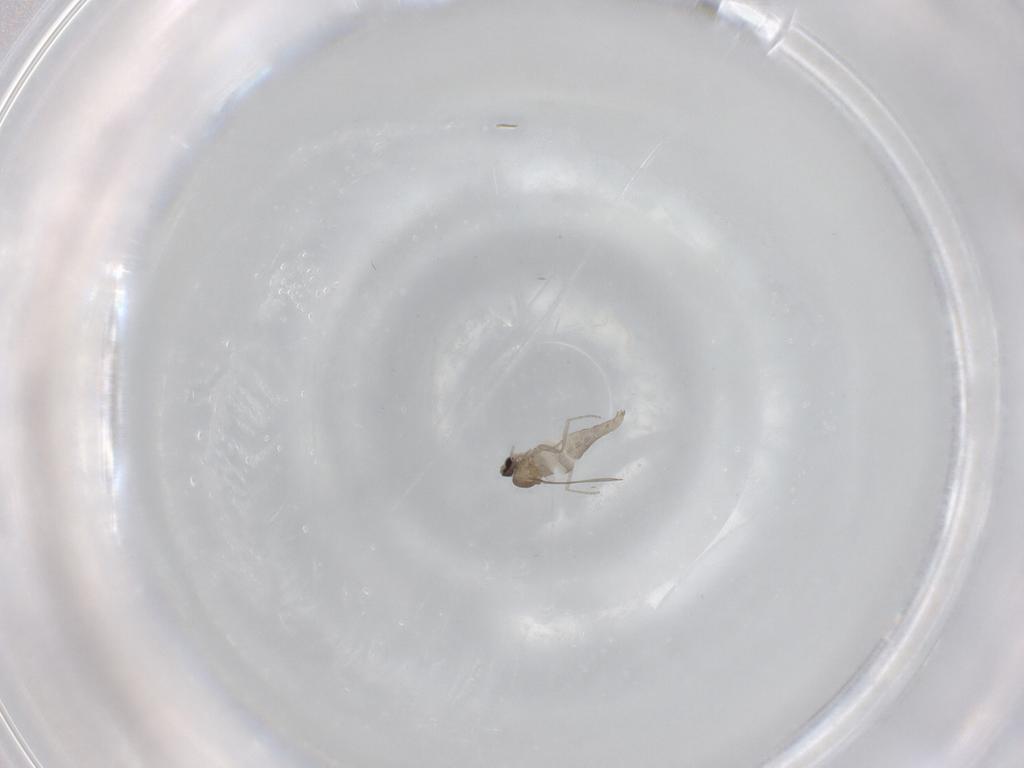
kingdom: Animalia
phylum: Arthropoda
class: Insecta
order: Diptera
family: Cecidomyiidae
